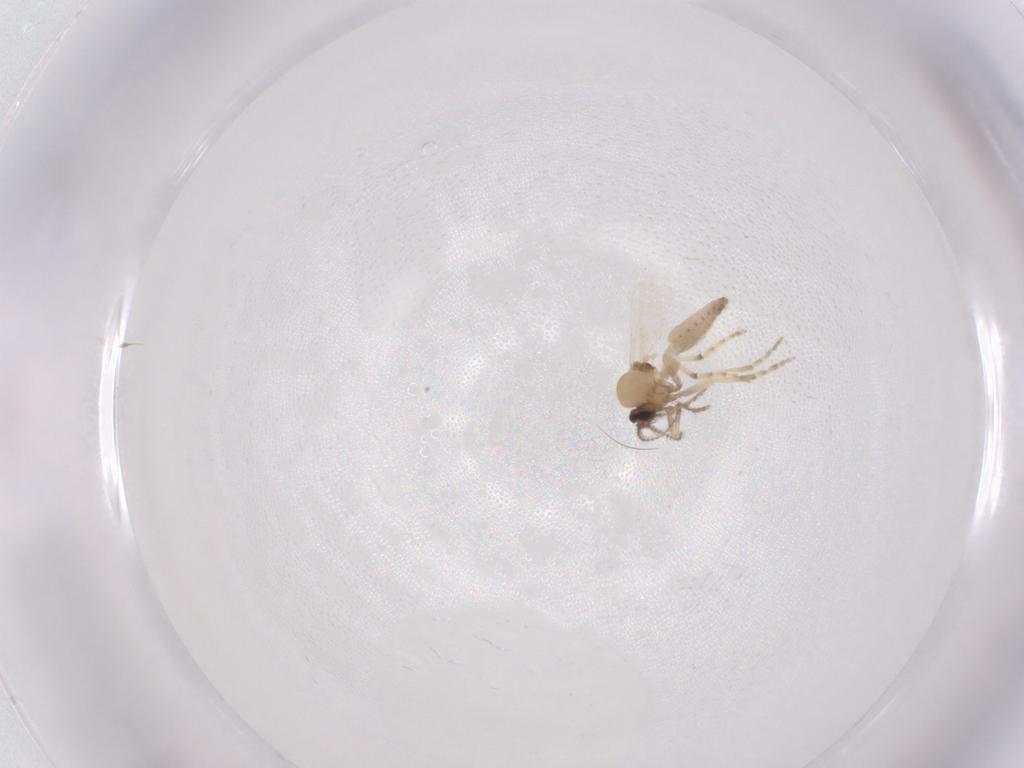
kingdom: Animalia
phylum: Arthropoda
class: Insecta
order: Diptera
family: Ceratopogonidae
